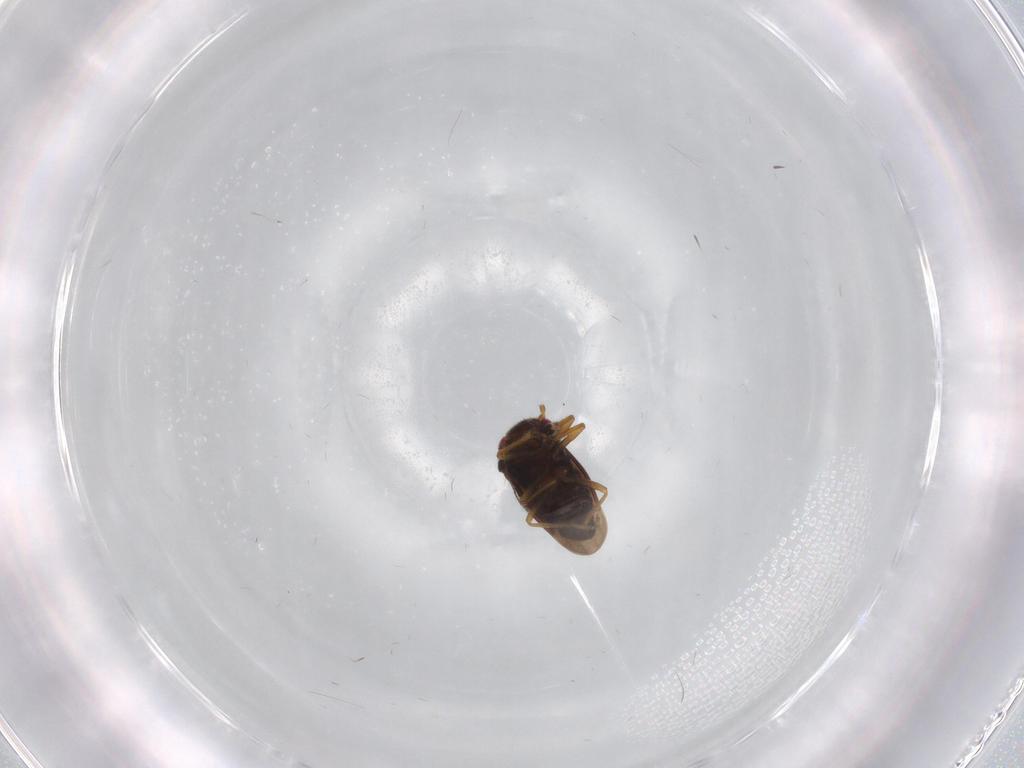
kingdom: Animalia
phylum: Arthropoda
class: Insecta
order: Hemiptera
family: Schizopteridae
